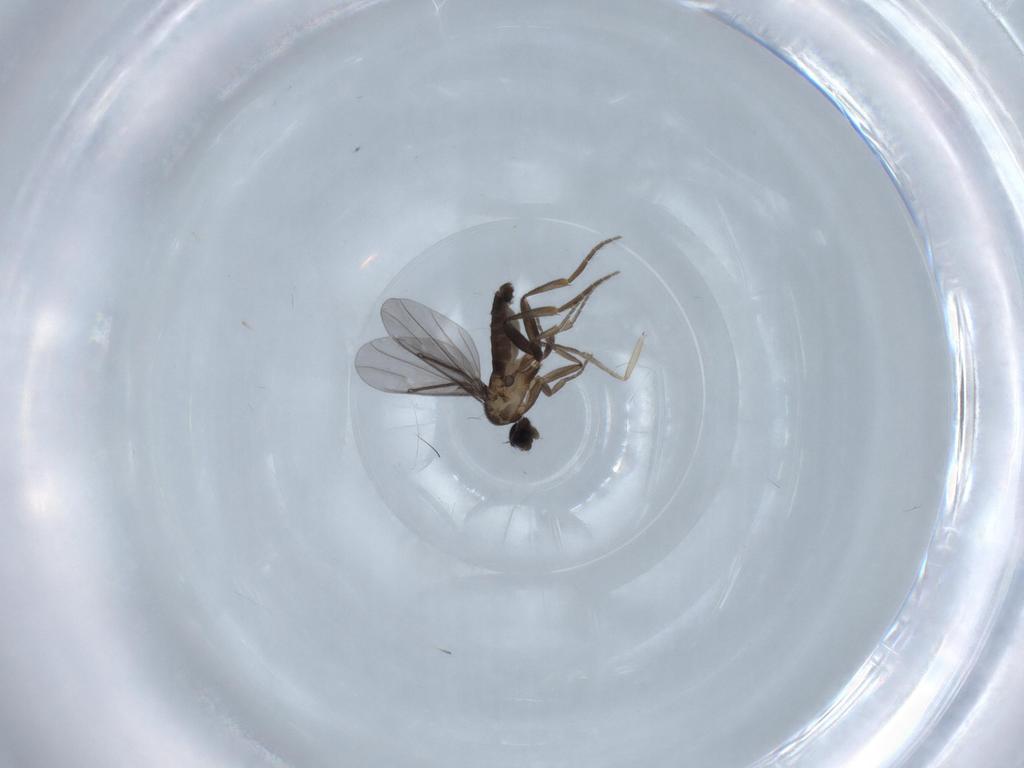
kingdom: Animalia
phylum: Arthropoda
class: Insecta
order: Diptera
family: Phoridae
